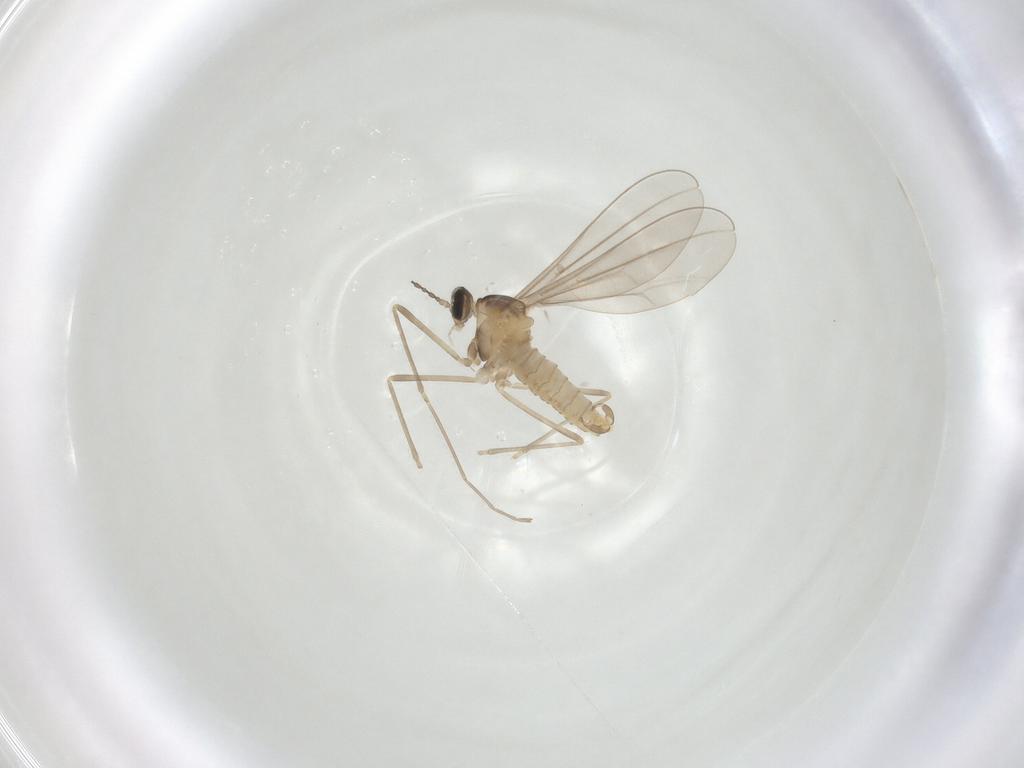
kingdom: Animalia
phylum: Arthropoda
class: Insecta
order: Diptera
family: Cecidomyiidae
